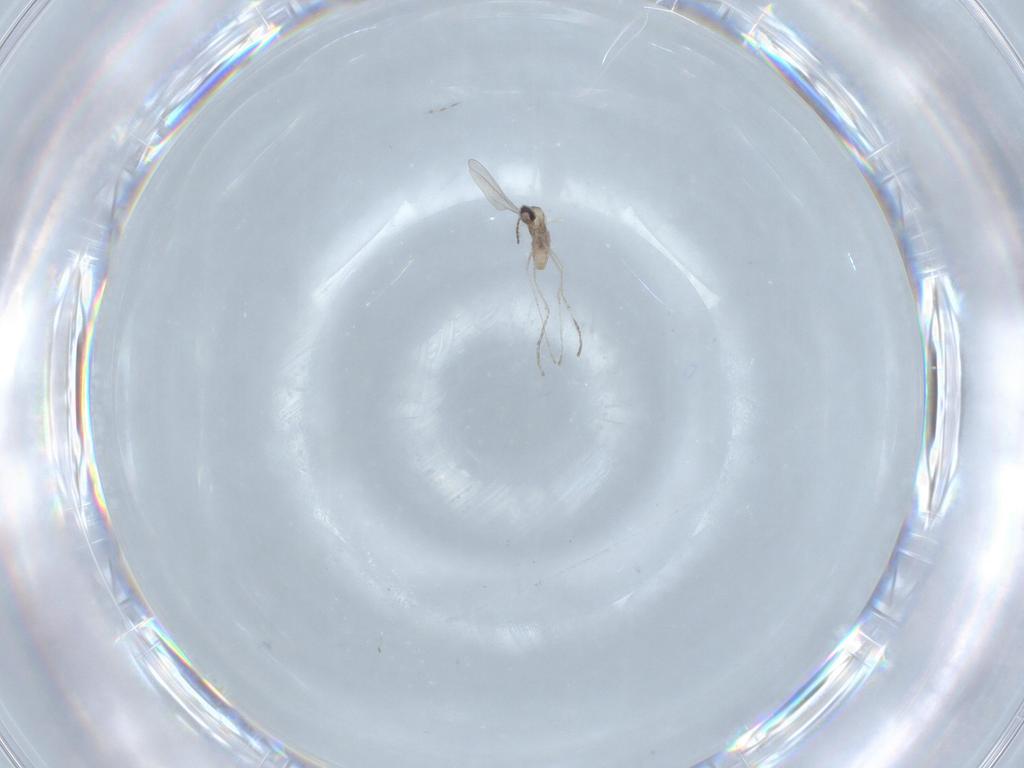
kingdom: Animalia
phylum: Arthropoda
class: Insecta
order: Diptera
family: Cecidomyiidae
